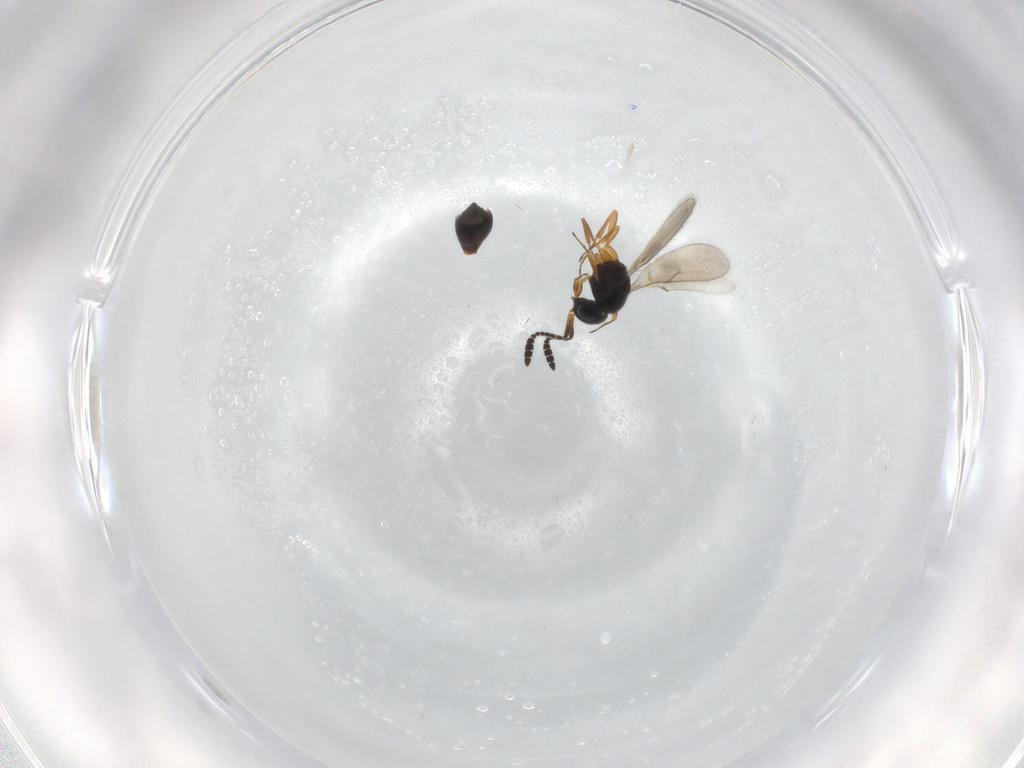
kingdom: Animalia
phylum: Arthropoda
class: Insecta
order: Hymenoptera
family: Scelionidae
